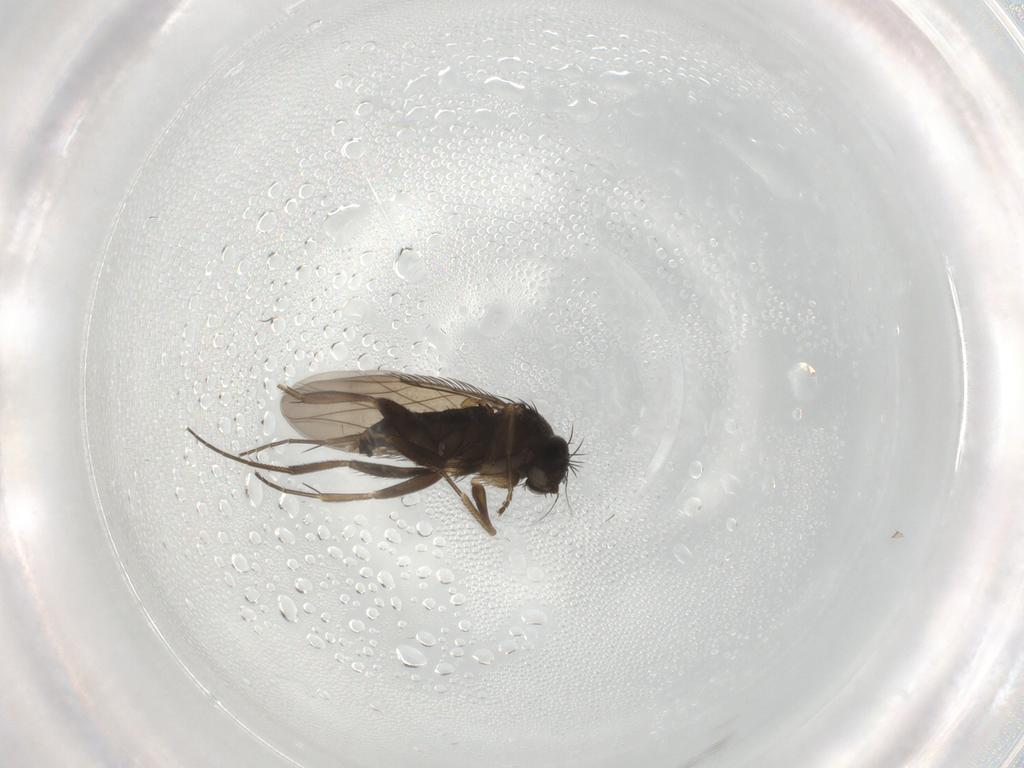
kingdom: Animalia
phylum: Arthropoda
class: Insecta
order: Diptera
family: Phoridae
